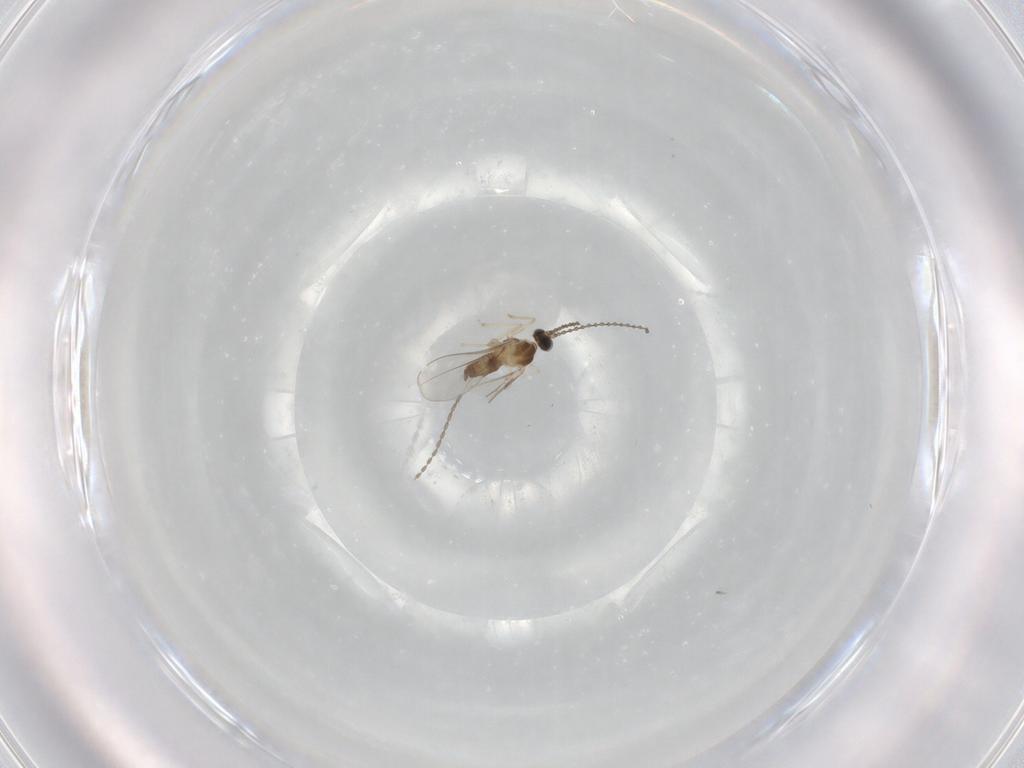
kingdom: Animalia
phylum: Arthropoda
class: Insecta
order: Diptera
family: Cecidomyiidae
